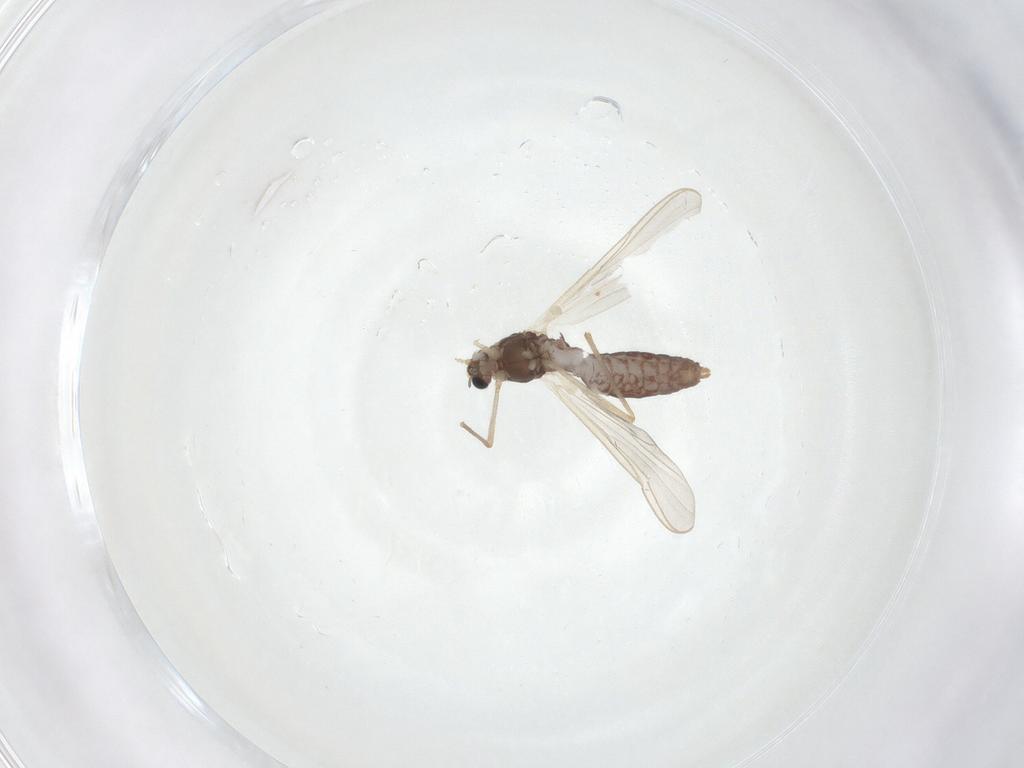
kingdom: Animalia
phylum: Arthropoda
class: Insecta
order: Diptera
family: Chironomidae
